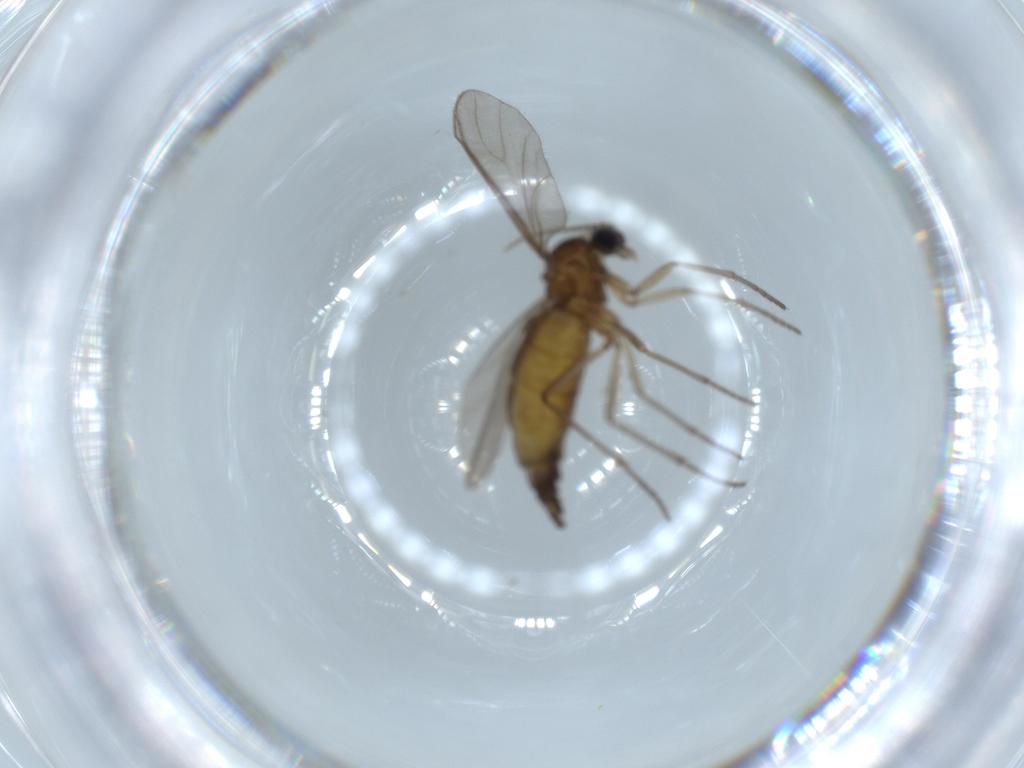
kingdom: Animalia
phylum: Arthropoda
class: Insecta
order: Diptera
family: Sciaridae
